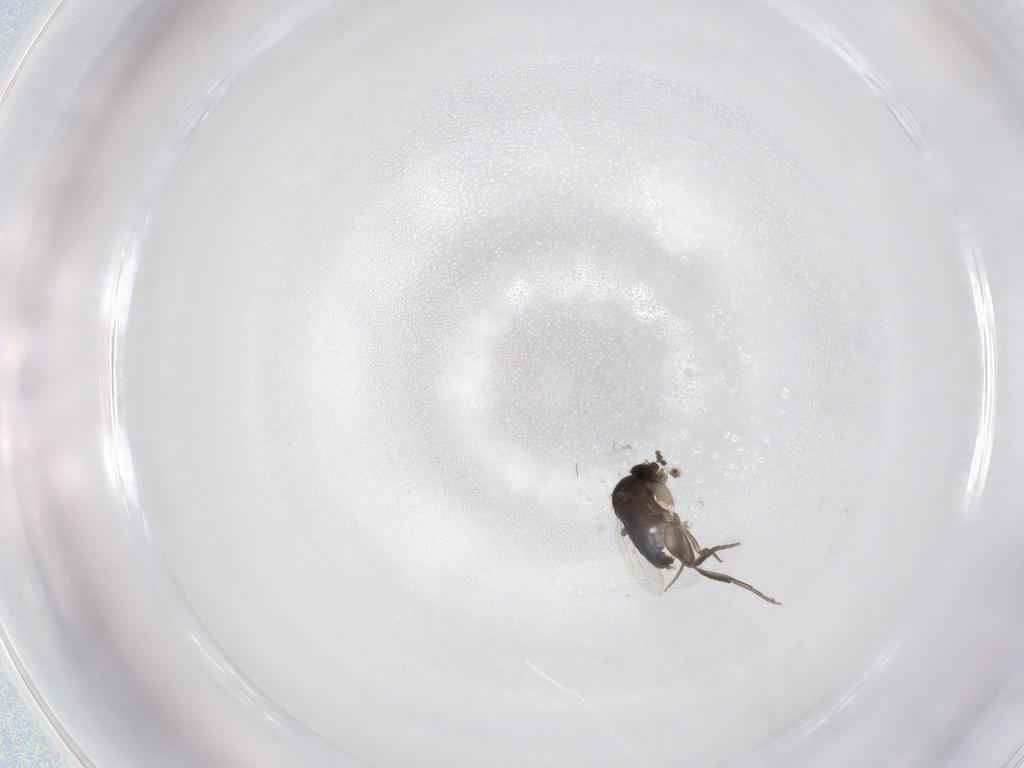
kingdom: Animalia
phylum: Arthropoda
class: Insecta
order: Diptera
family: Phoridae
